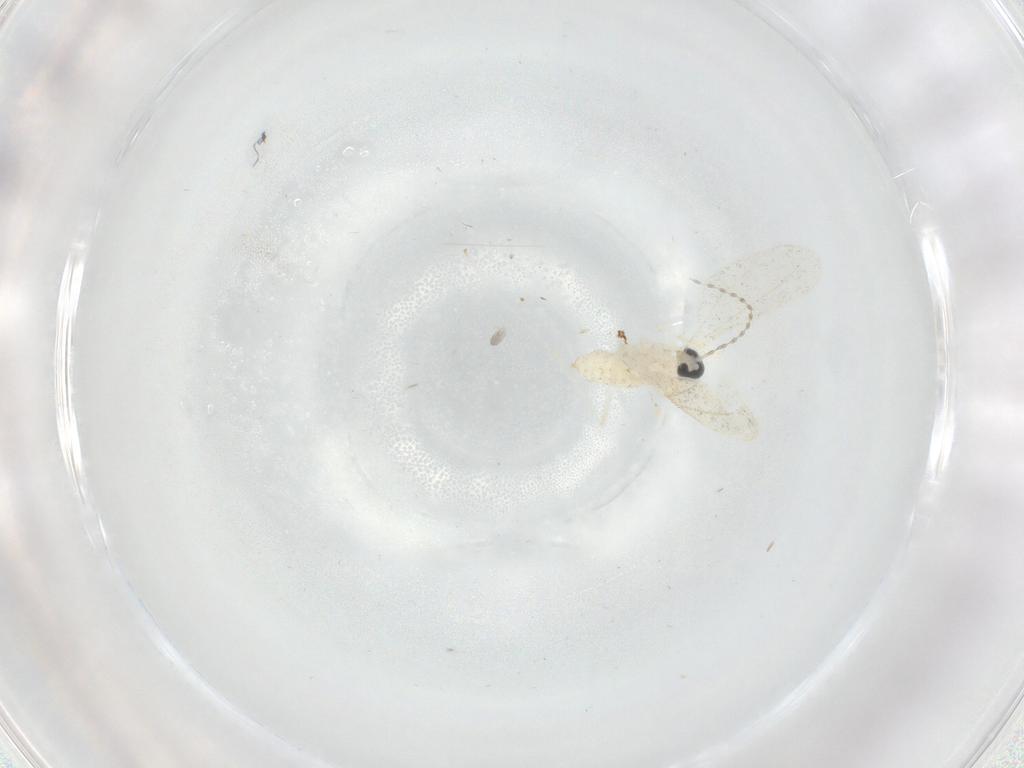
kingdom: Animalia
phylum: Arthropoda
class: Insecta
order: Diptera
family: Cecidomyiidae
